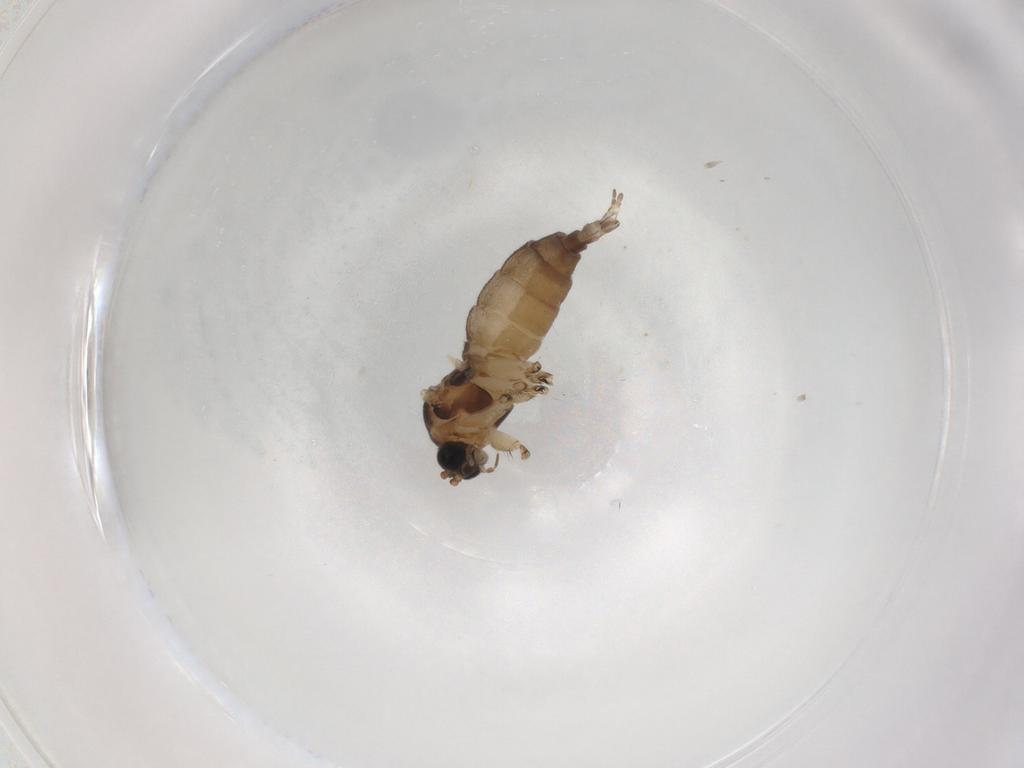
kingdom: Animalia
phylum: Arthropoda
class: Insecta
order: Diptera
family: Sciaridae
